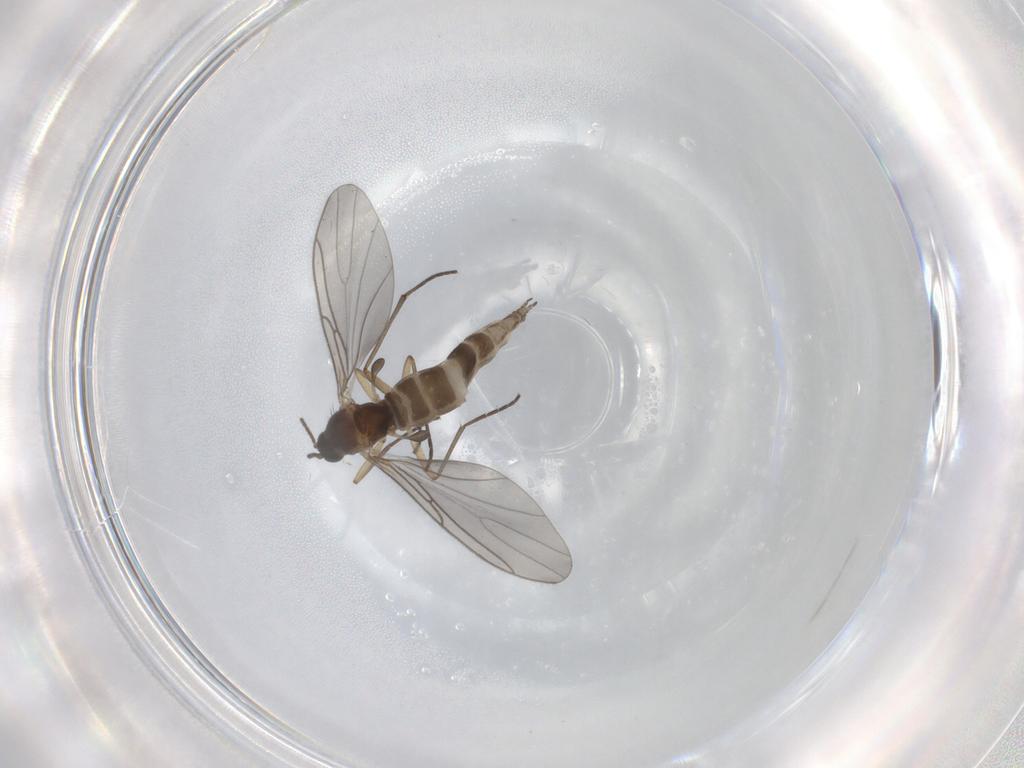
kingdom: Animalia
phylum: Arthropoda
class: Insecta
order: Diptera
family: Sciaridae
